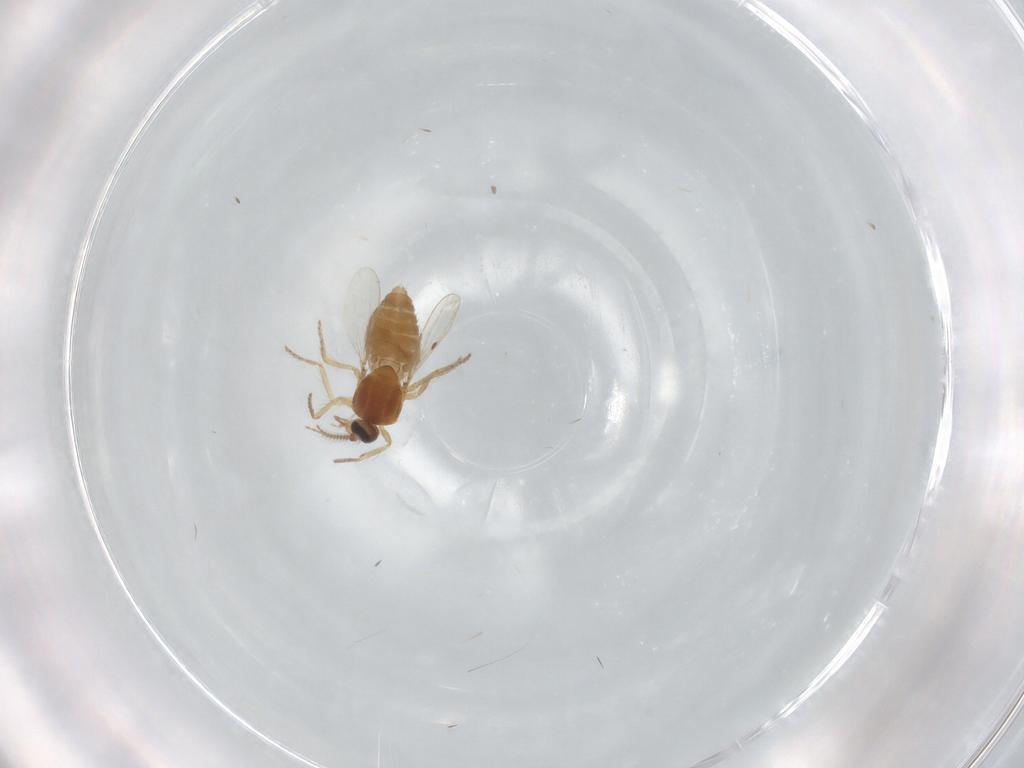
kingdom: Animalia
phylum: Arthropoda
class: Insecta
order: Diptera
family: Ceratopogonidae
